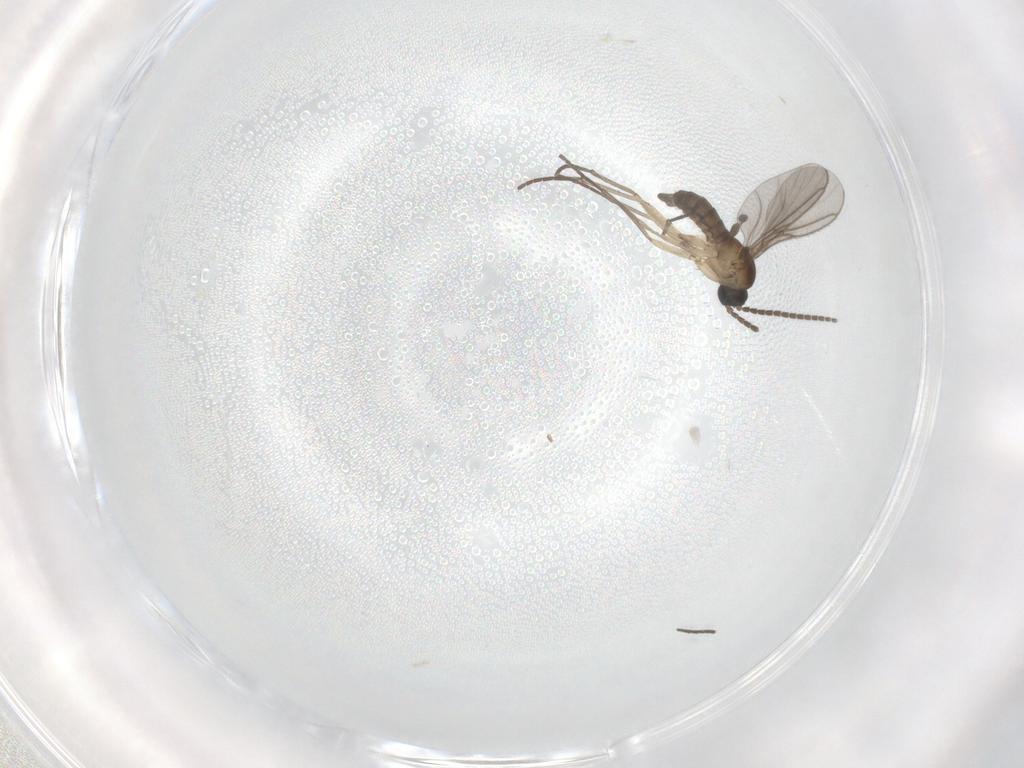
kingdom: Animalia
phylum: Arthropoda
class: Insecta
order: Diptera
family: Sciaridae
